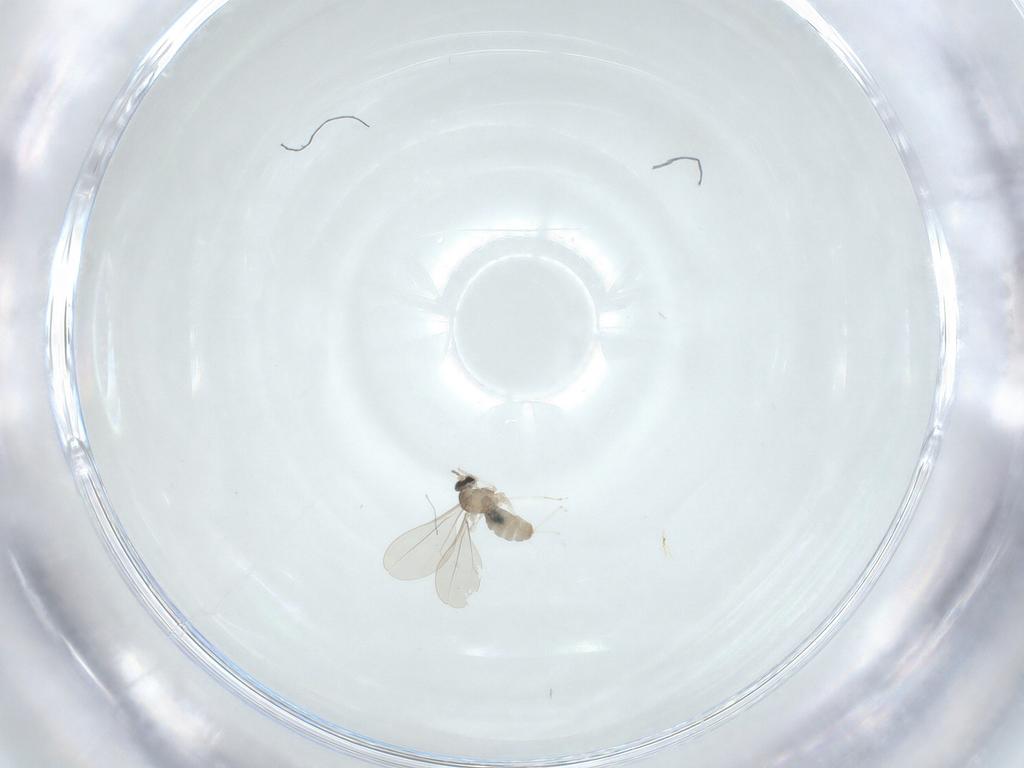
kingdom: Animalia
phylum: Arthropoda
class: Insecta
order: Diptera
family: Cecidomyiidae
